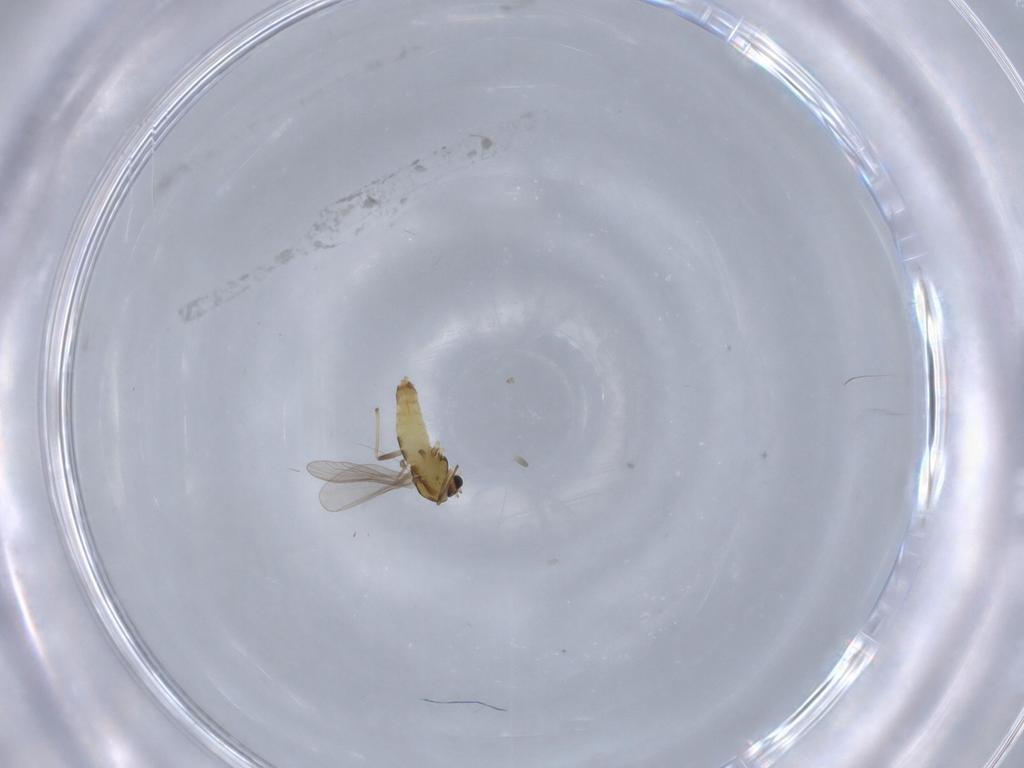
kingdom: Animalia
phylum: Arthropoda
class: Insecta
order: Diptera
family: Chironomidae
